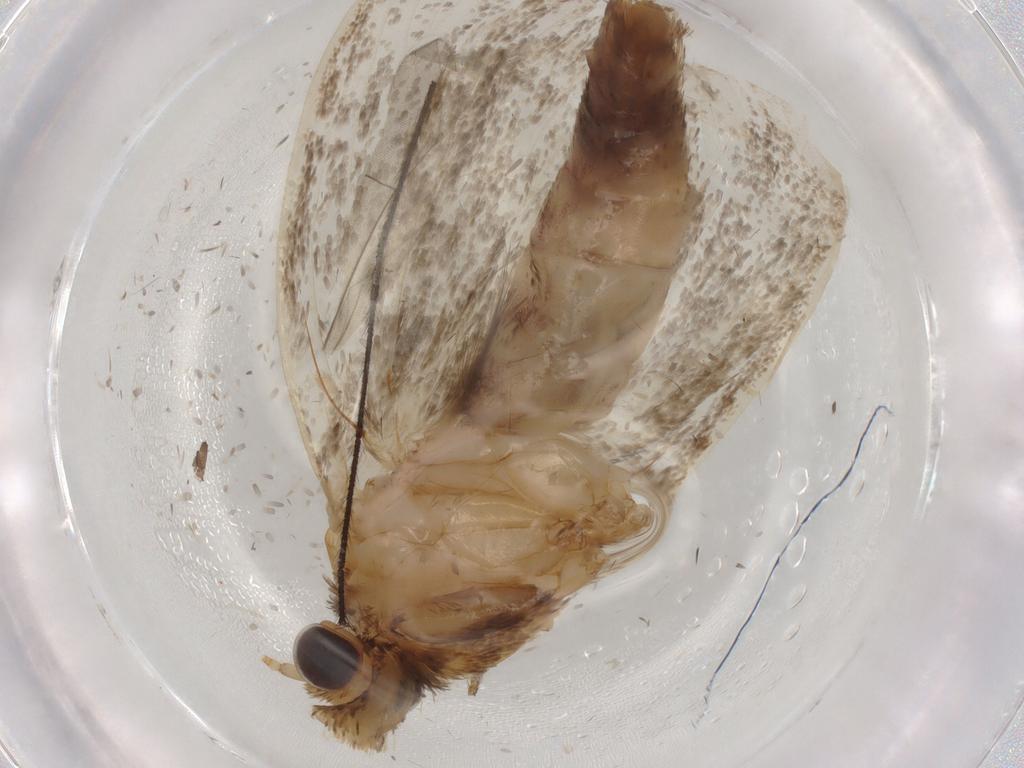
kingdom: Animalia
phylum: Arthropoda
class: Insecta
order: Lepidoptera
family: Tineidae
